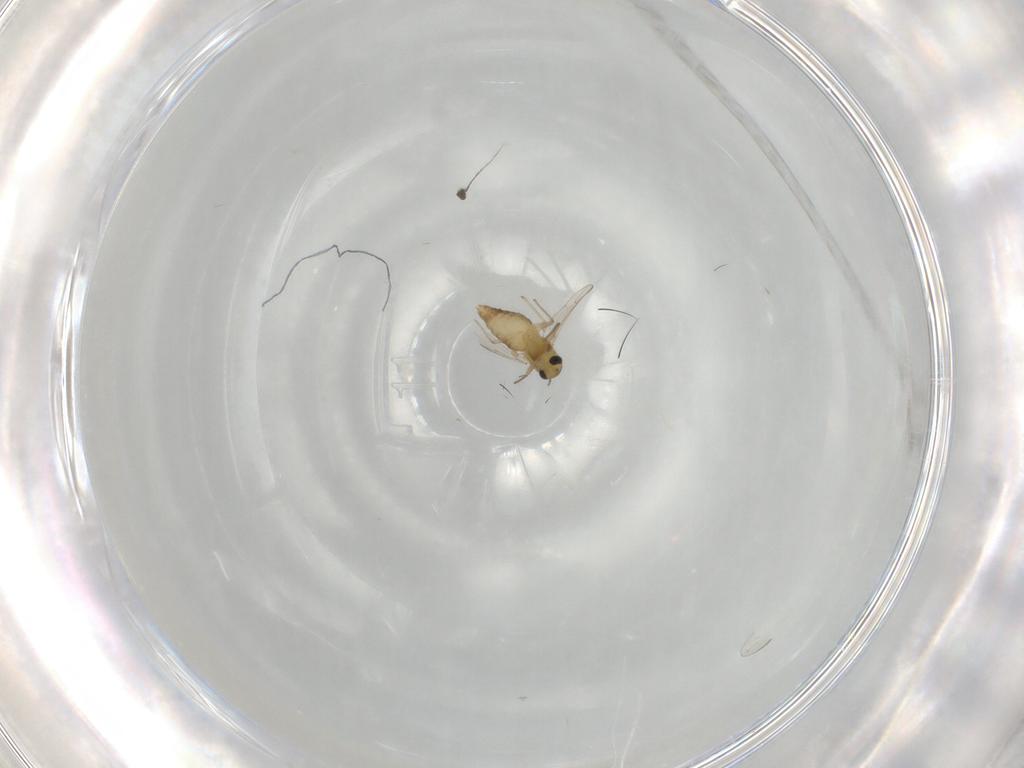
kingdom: Animalia
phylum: Arthropoda
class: Insecta
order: Diptera
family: Chironomidae
